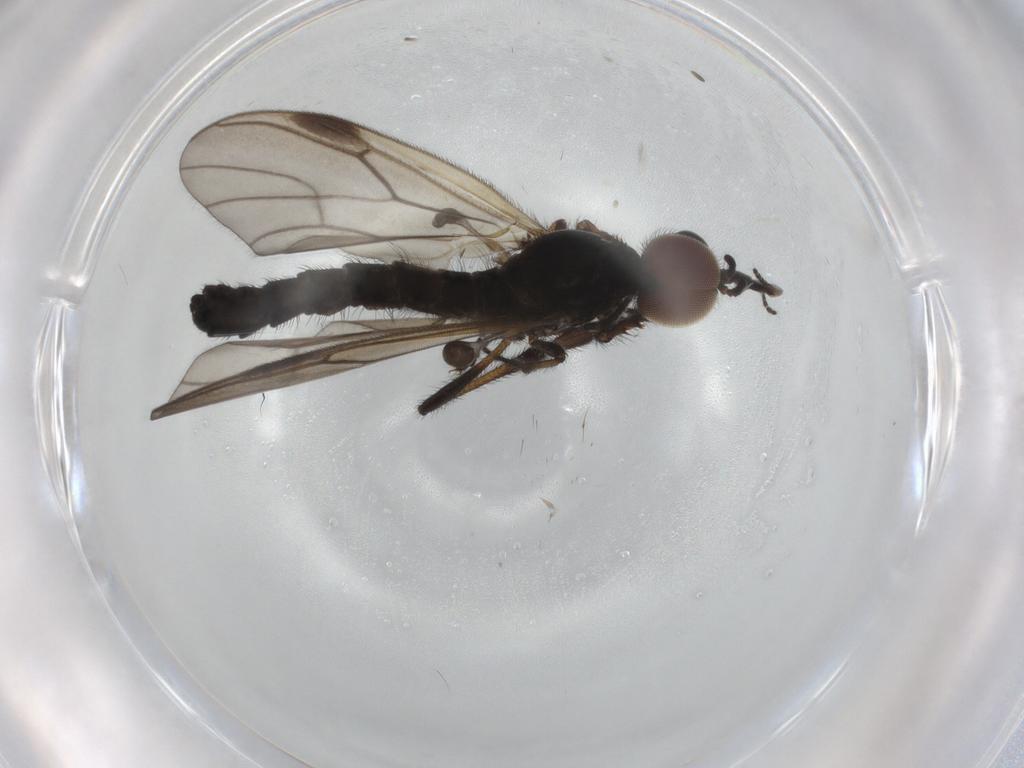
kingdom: Animalia
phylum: Arthropoda
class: Insecta
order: Diptera
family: Bibionidae
